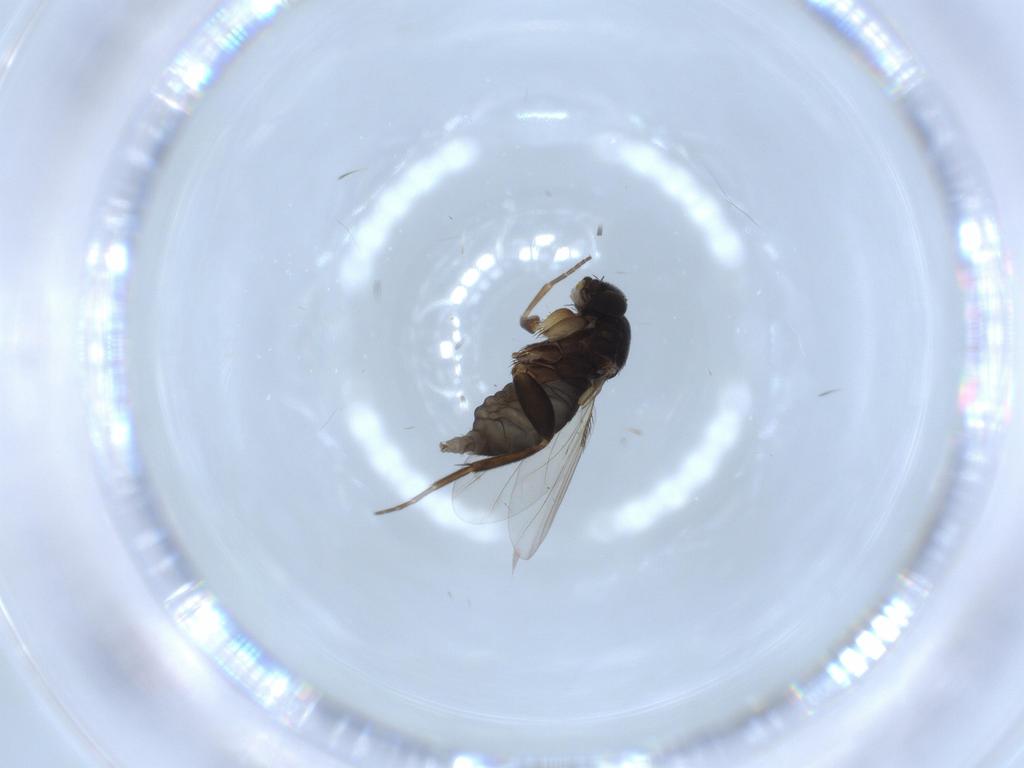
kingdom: Animalia
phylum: Arthropoda
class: Insecta
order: Diptera
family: Phoridae
